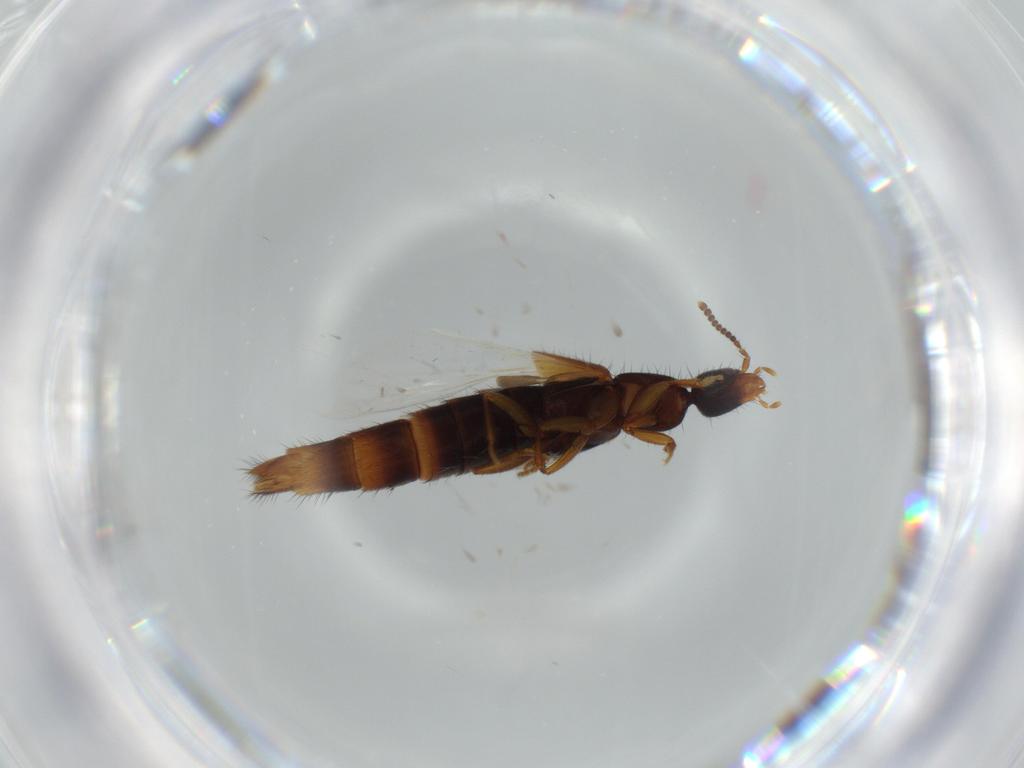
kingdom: Animalia
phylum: Arthropoda
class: Insecta
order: Coleoptera
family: Staphylinidae
